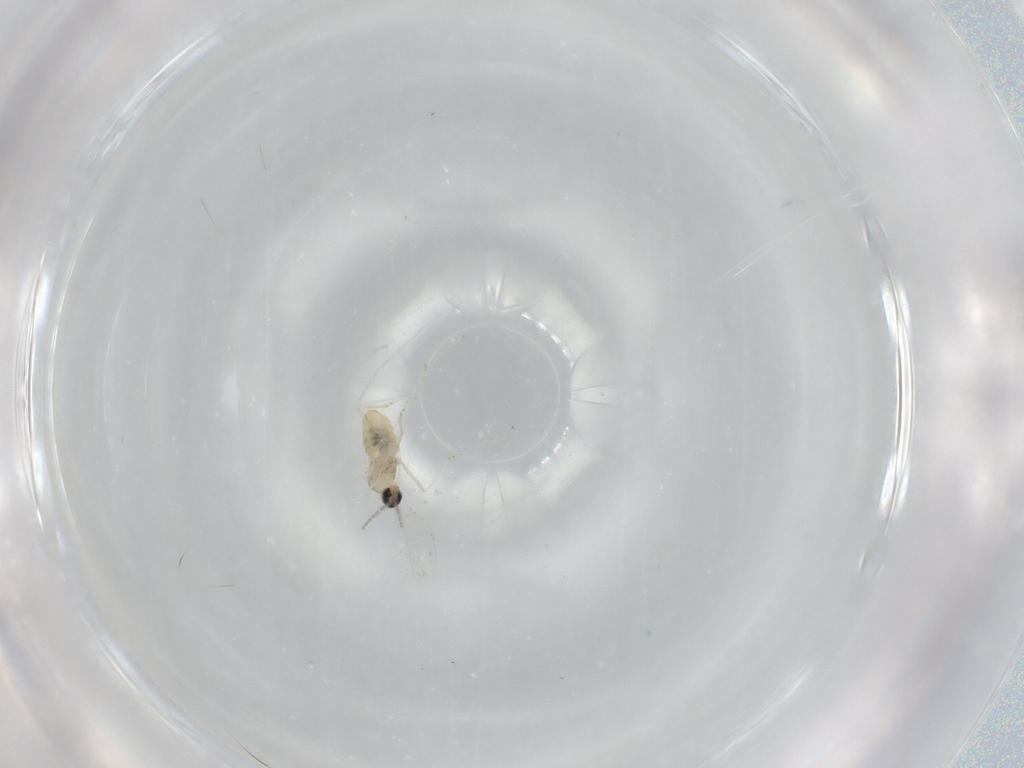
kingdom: Animalia
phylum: Arthropoda
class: Insecta
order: Diptera
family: Cecidomyiidae
